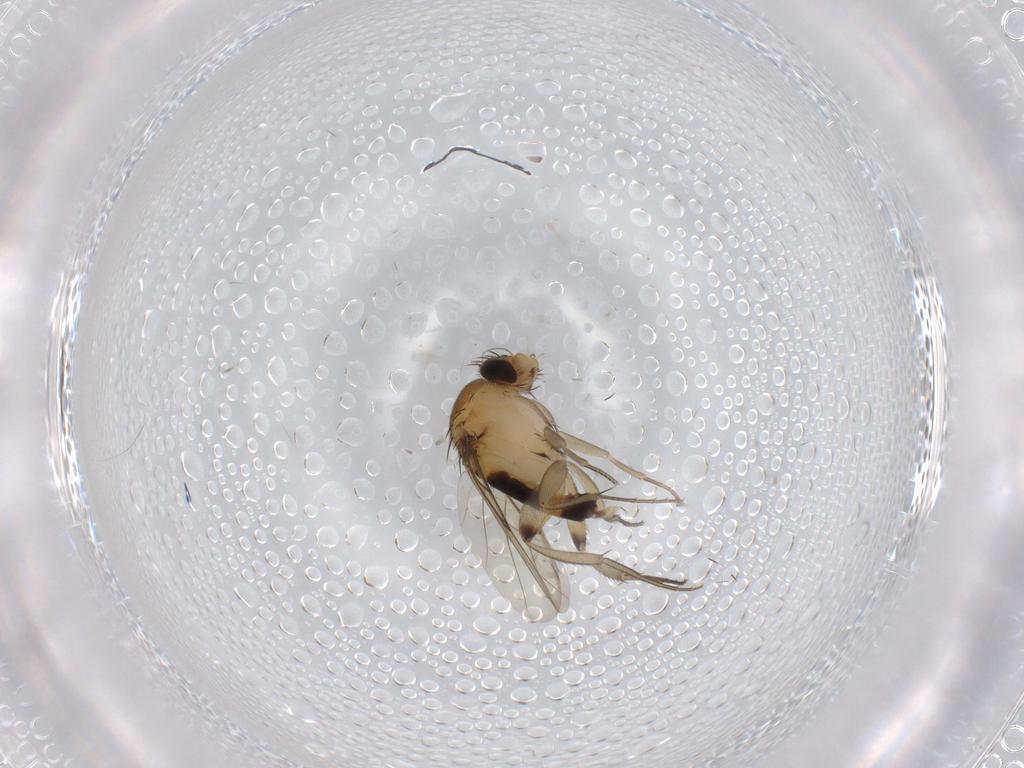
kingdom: Animalia
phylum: Arthropoda
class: Insecta
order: Diptera
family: Phoridae
